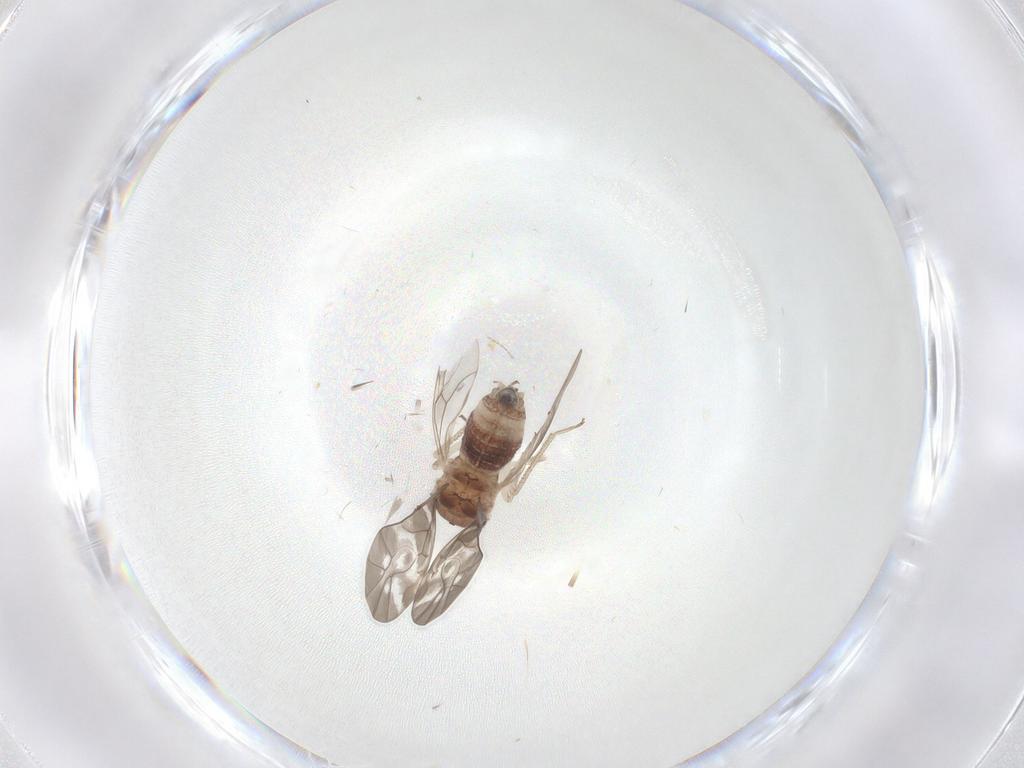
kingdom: Animalia
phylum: Arthropoda
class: Insecta
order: Psocodea
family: Peripsocidae
